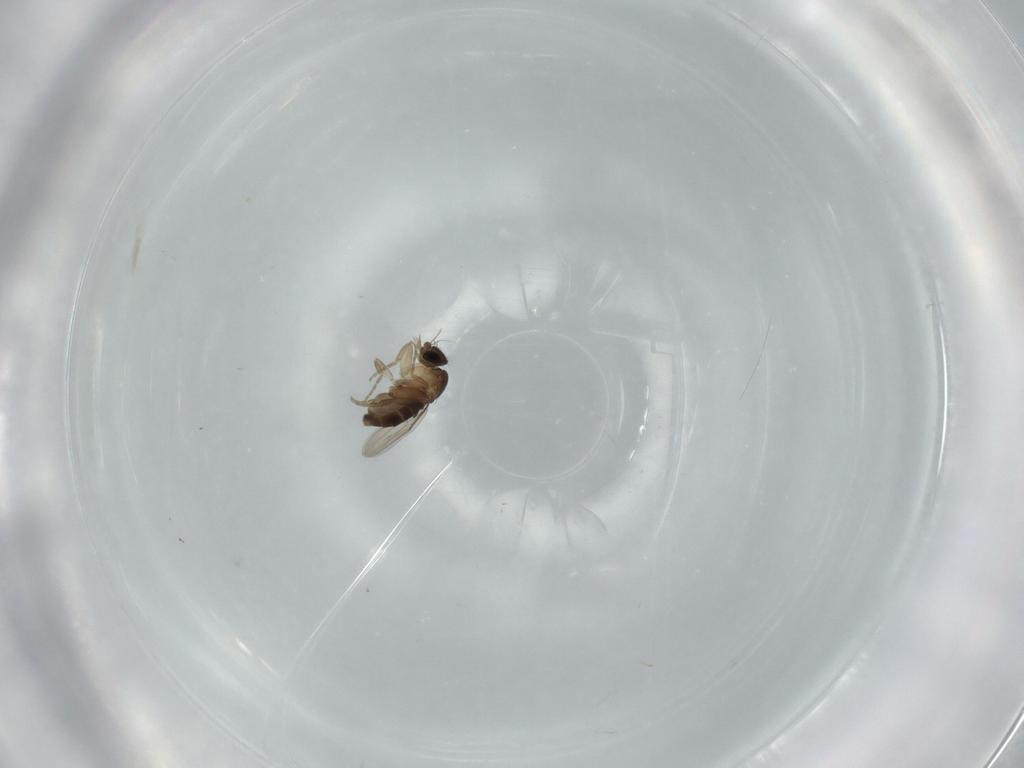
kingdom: Animalia
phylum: Arthropoda
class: Insecta
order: Diptera
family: Phoridae
